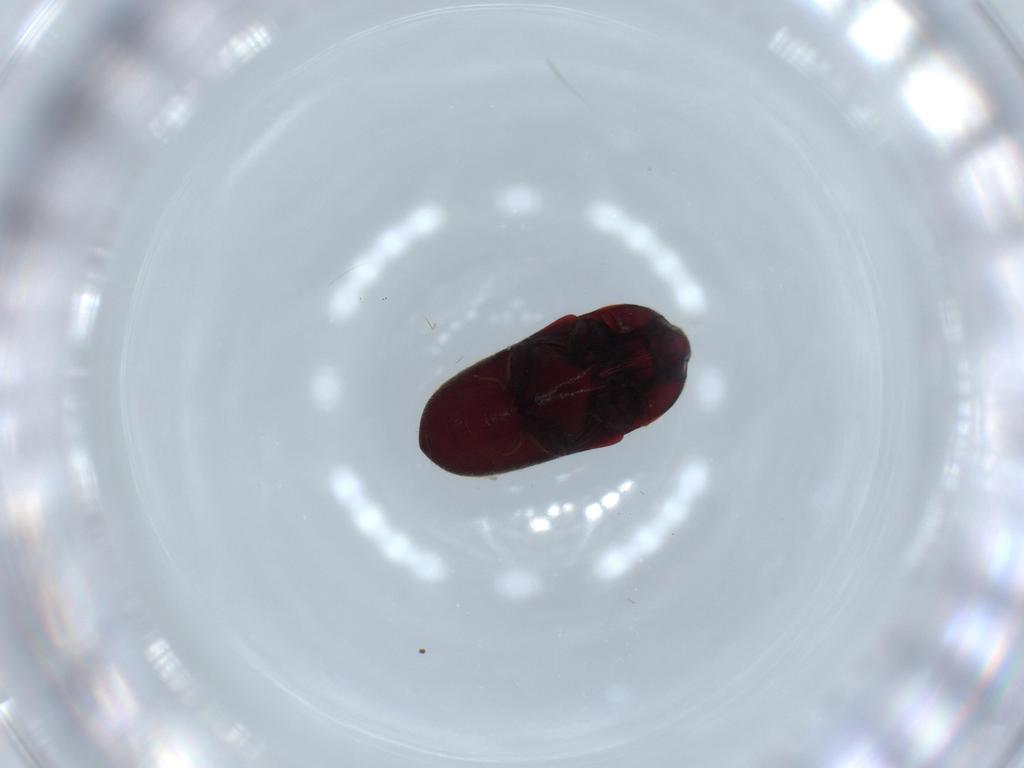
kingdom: Animalia
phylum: Arthropoda
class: Insecta
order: Coleoptera
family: Throscidae
